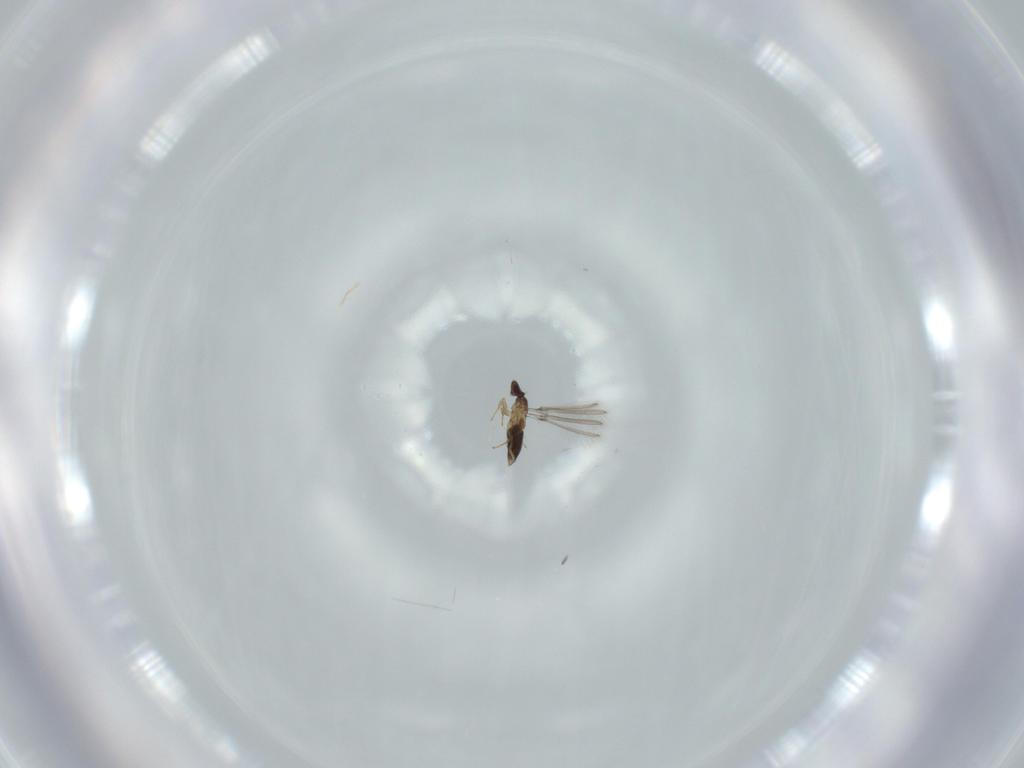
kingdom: Animalia
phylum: Arthropoda
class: Insecta
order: Hymenoptera
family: Mymaridae
